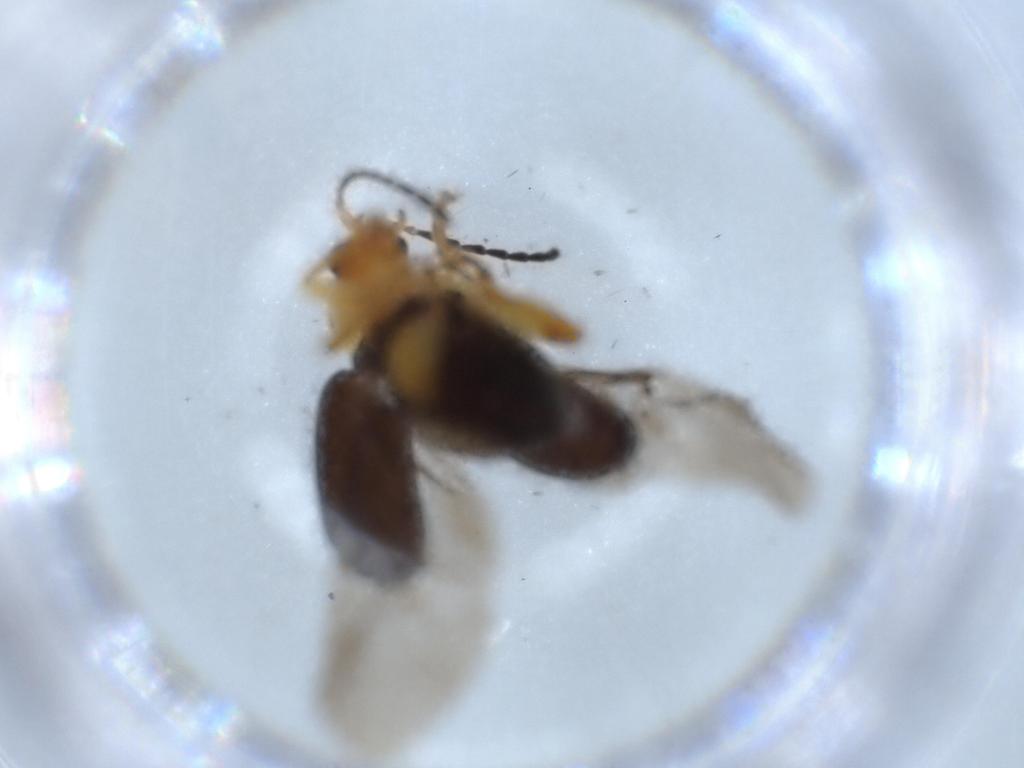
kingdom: Animalia
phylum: Arthropoda
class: Insecta
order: Coleoptera
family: Chrysomelidae
